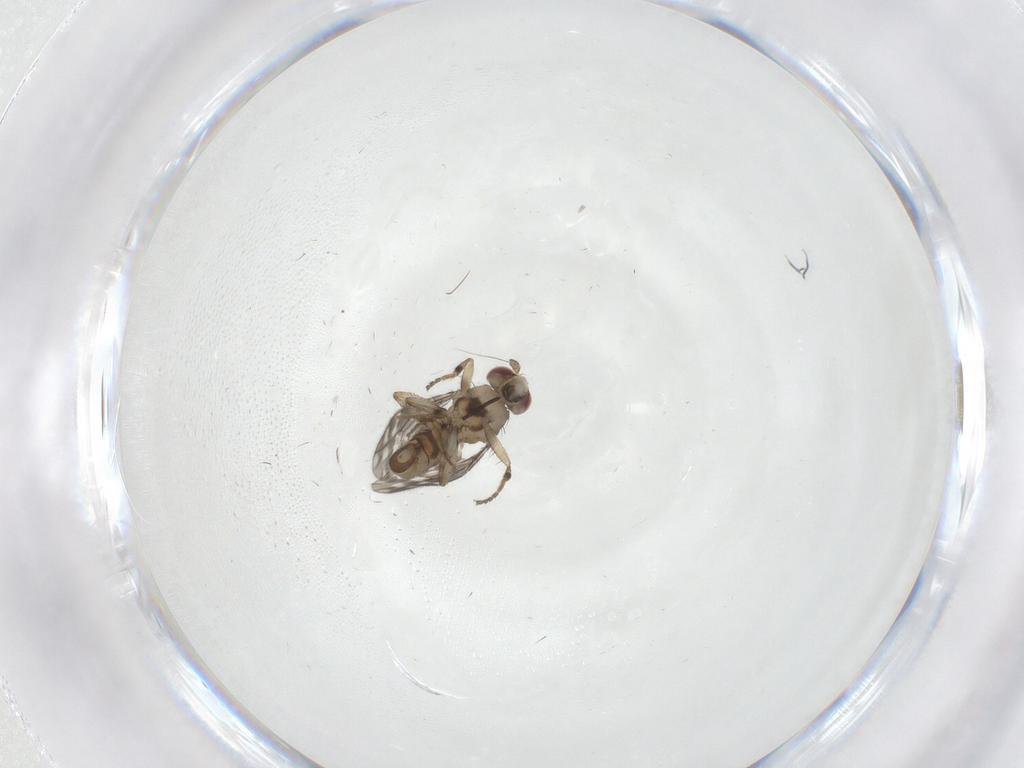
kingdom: Animalia
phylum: Arthropoda
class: Insecta
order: Diptera
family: Sphaeroceridae
